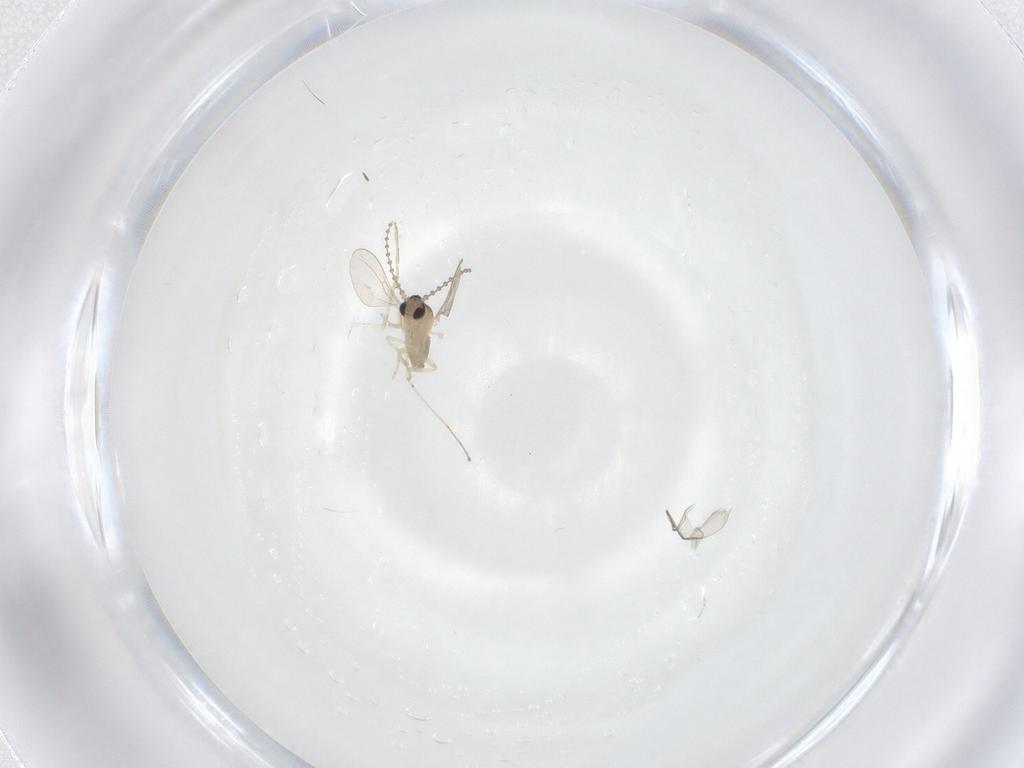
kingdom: Animalia
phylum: Arthropoda
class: Insecta
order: Diptera
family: Cecidomyiidae
